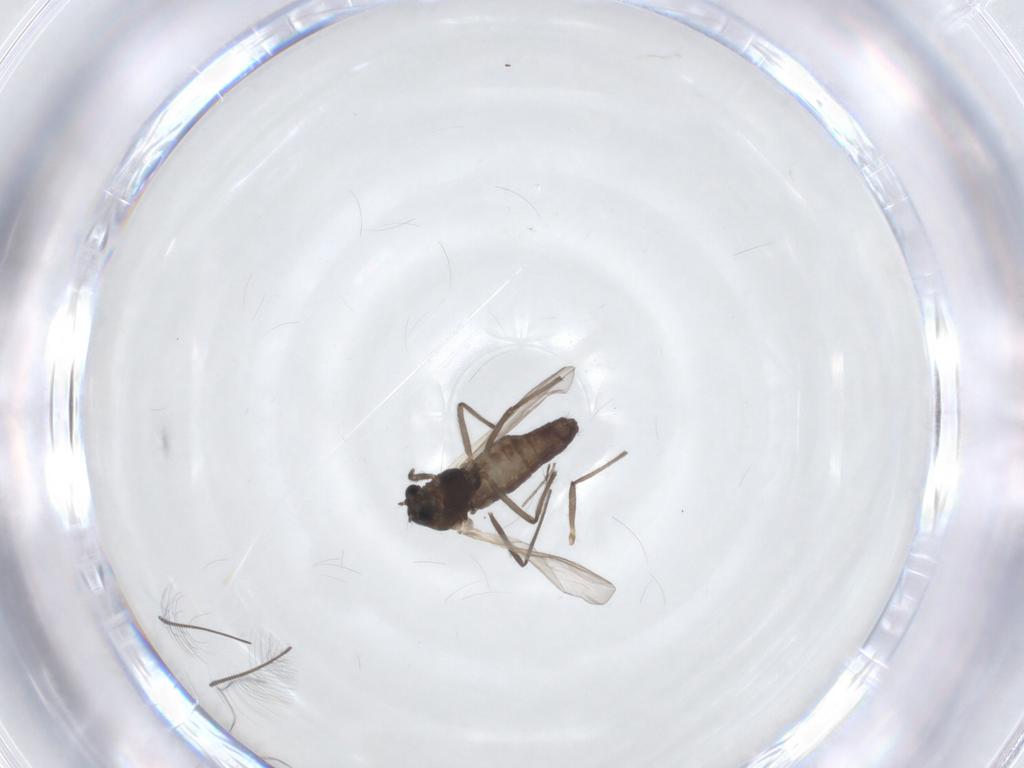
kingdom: Animalia
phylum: Arthropoda
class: Insecta
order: Diptera
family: Chironomidae
